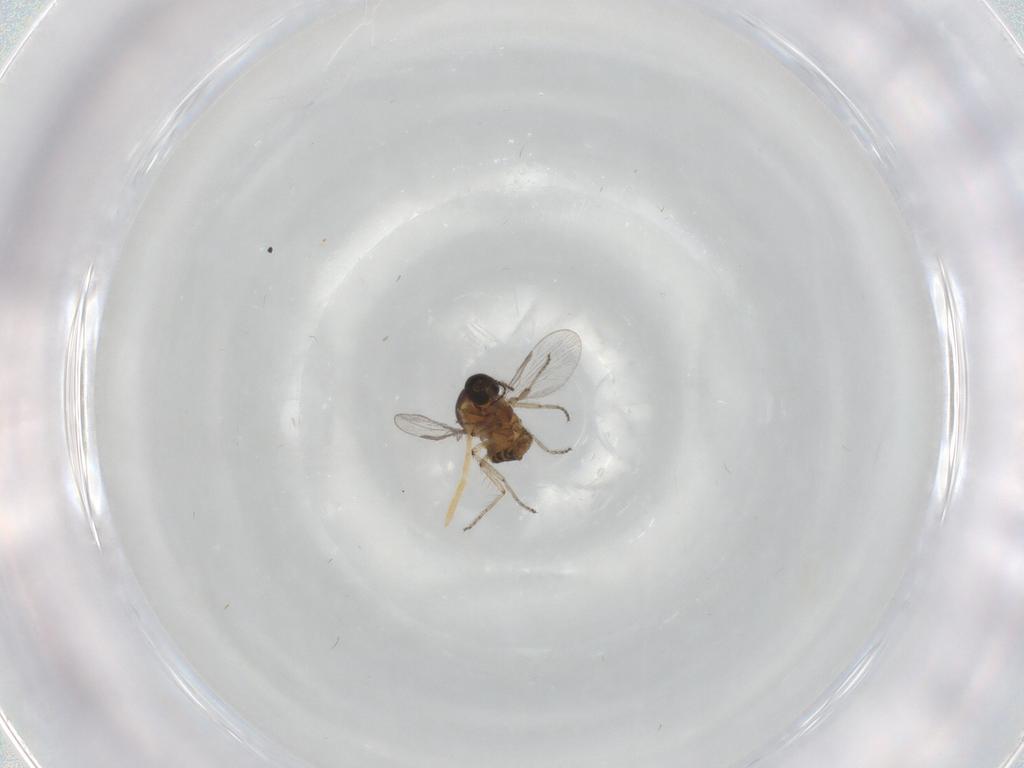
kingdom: Animalia
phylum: Arthropoda
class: Insecta
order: Diptera
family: Ceratopogonidae
